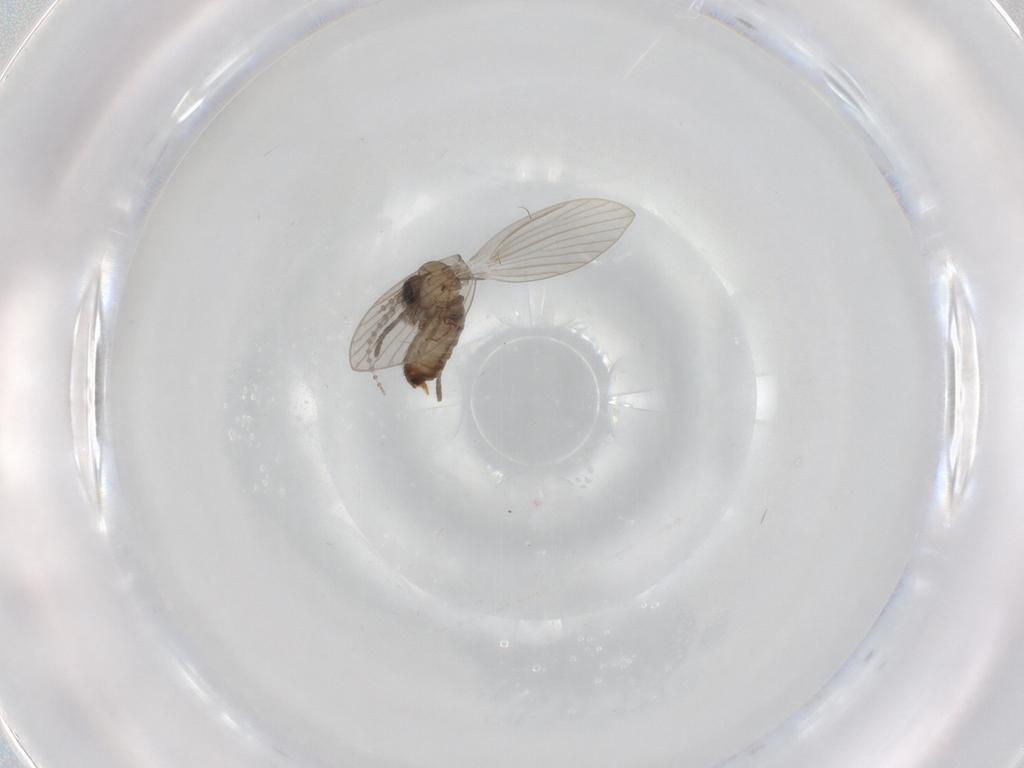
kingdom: Animalia
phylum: Arthropoda
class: Insecta
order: Diptera
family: Psychodidae
